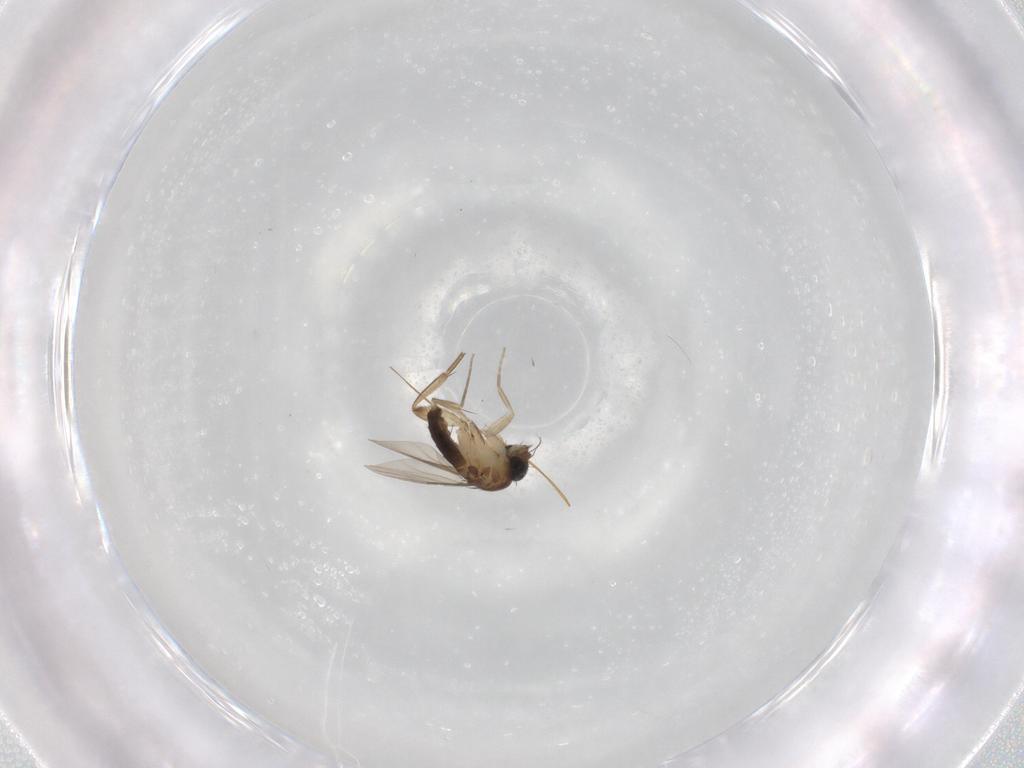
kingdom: Animalia
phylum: Arthropoda
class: Insecta
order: Diptera
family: Phoridae
